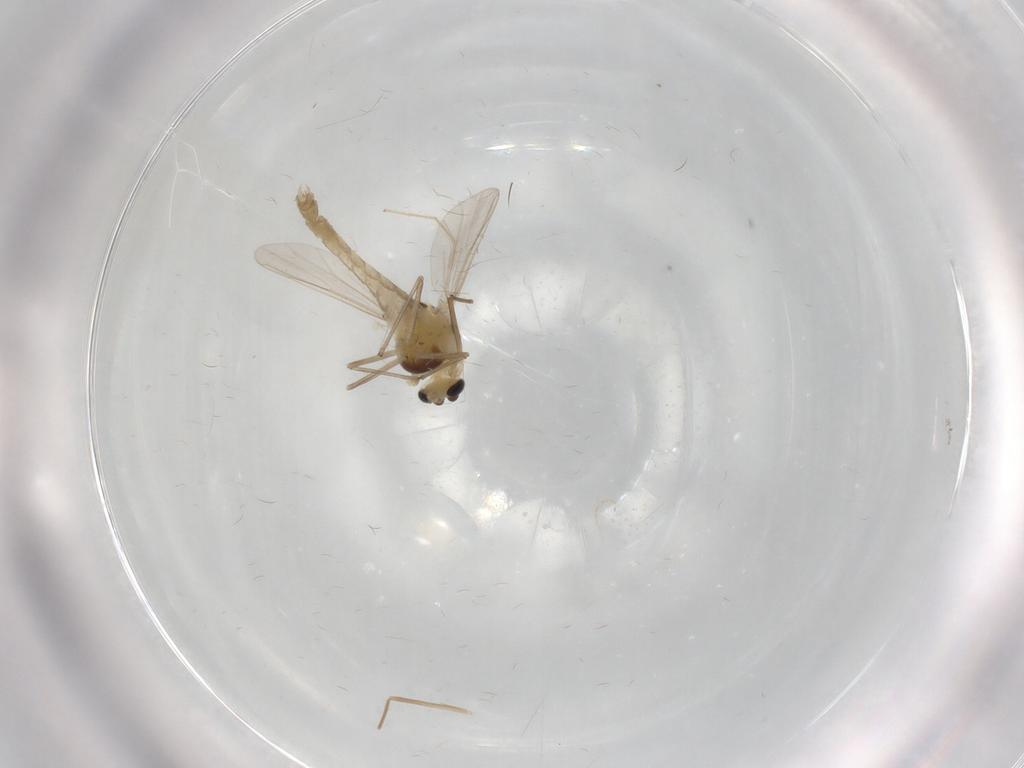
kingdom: Animalia
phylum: Arthropoda
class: Insecta
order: Diptera
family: Chironomidae
